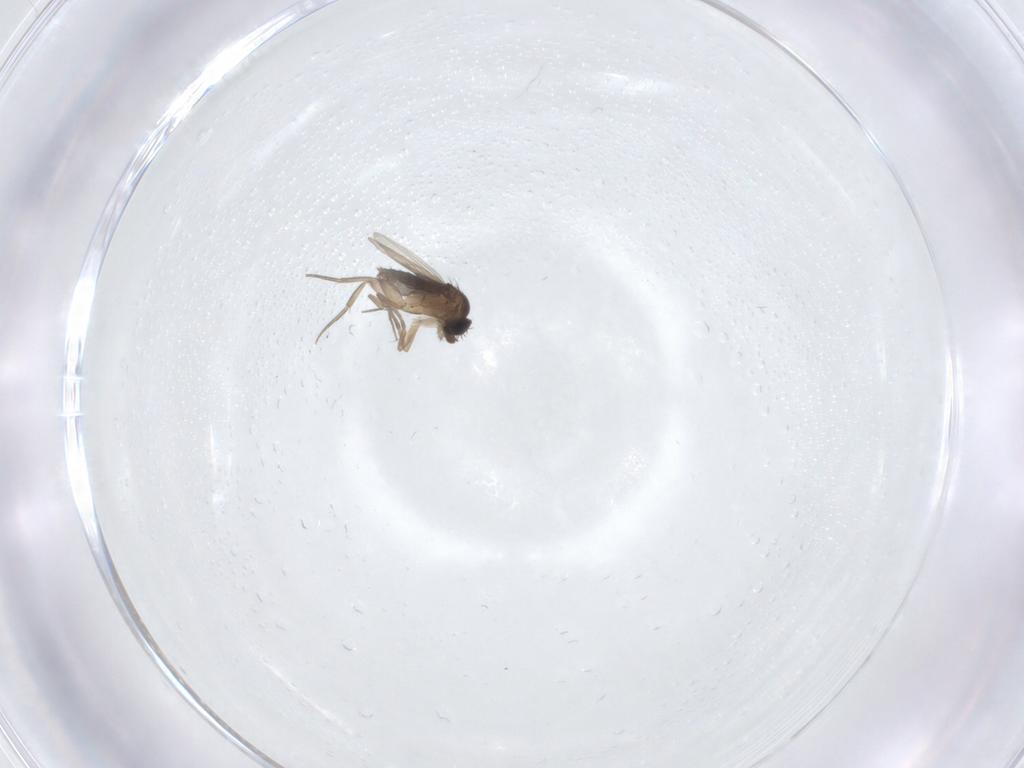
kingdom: Animalia
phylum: Arthropoda
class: Insecta
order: Diptera
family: Phoridae
